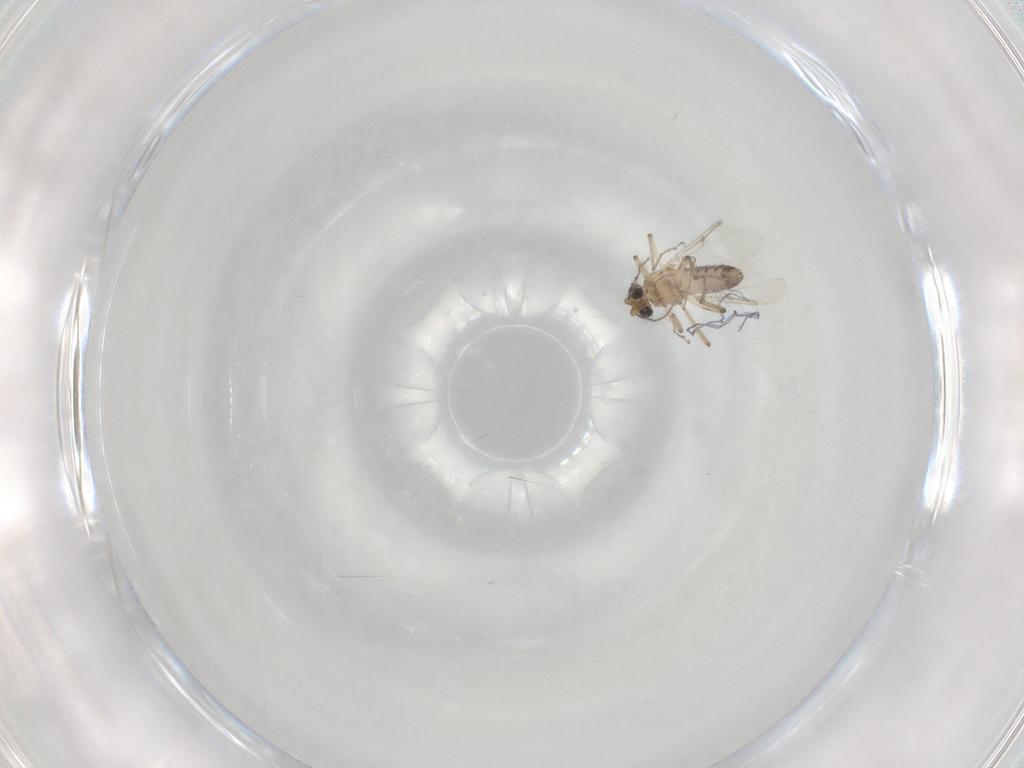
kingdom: Animalia
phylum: Arthropoda
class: Insecta
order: Diptera
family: Ceratopogonidae
